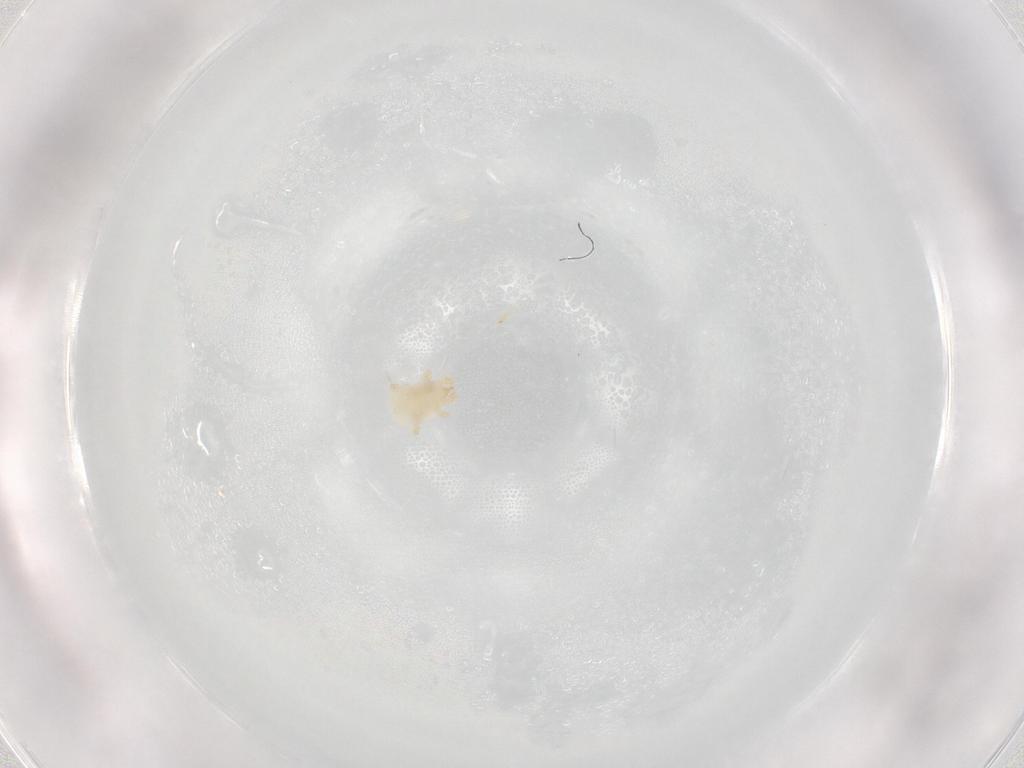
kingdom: Animalia
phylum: Arthropoda
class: Arachnida
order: Mesostigmata
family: Melicharidae
